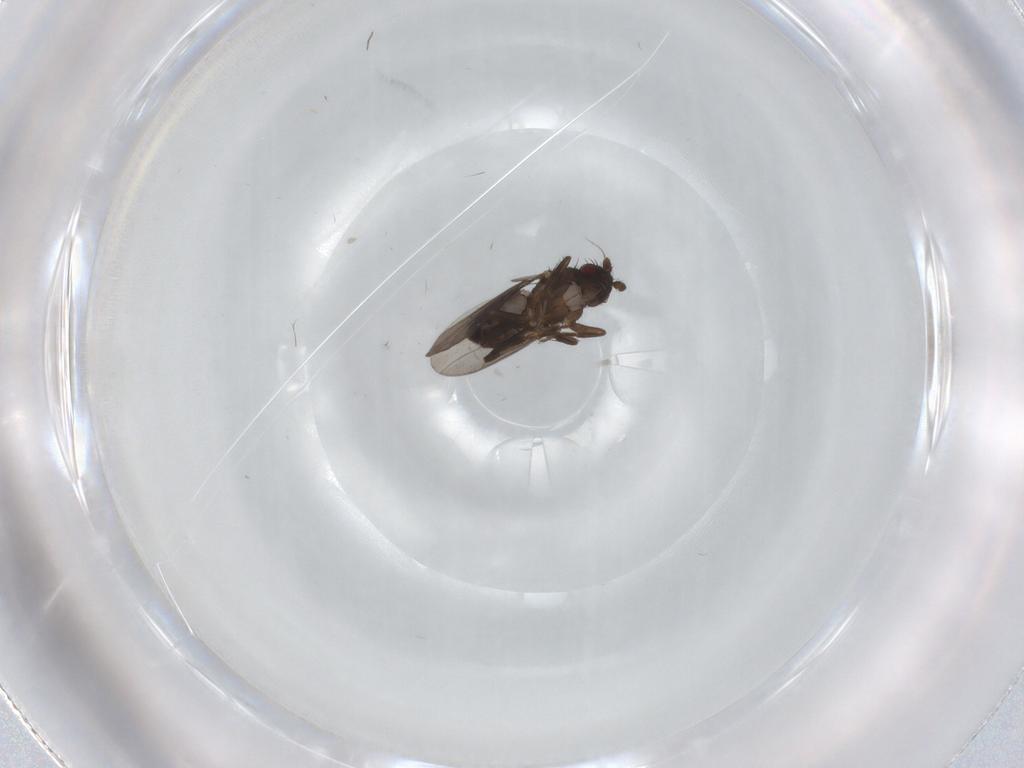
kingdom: Animalia
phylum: Arthropoda
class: Insecta
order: Diptera
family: Sphaeroceridae
